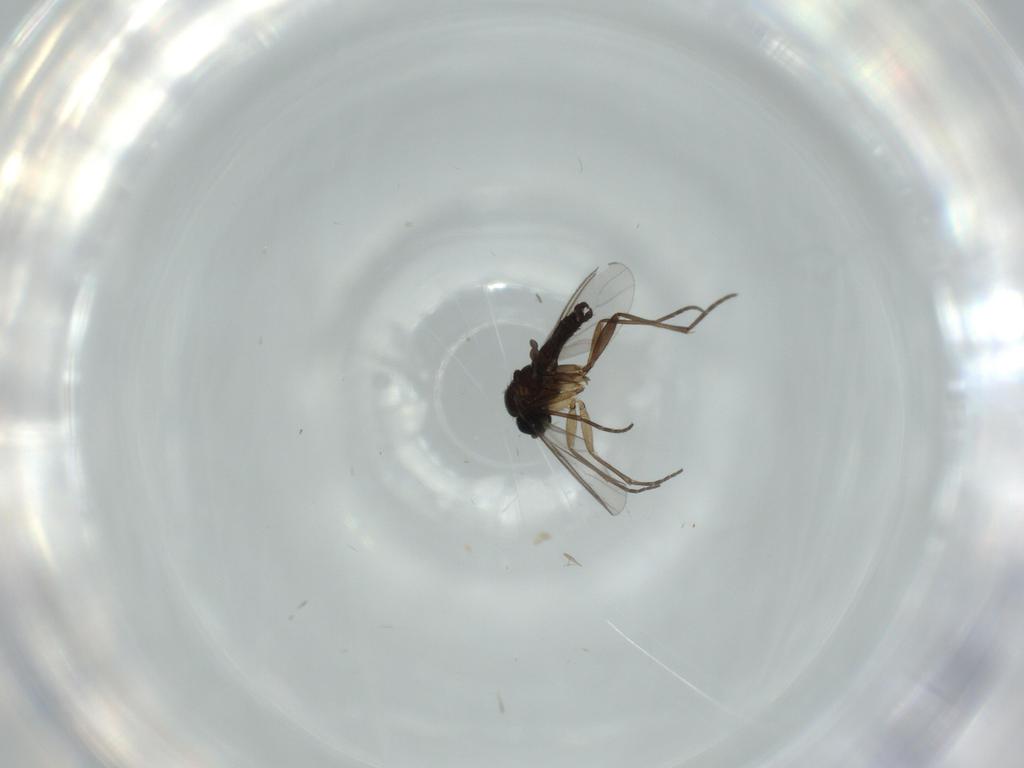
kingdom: Animalia
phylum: Arthropoda
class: Insecta
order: Diptera
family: Sciaridae
